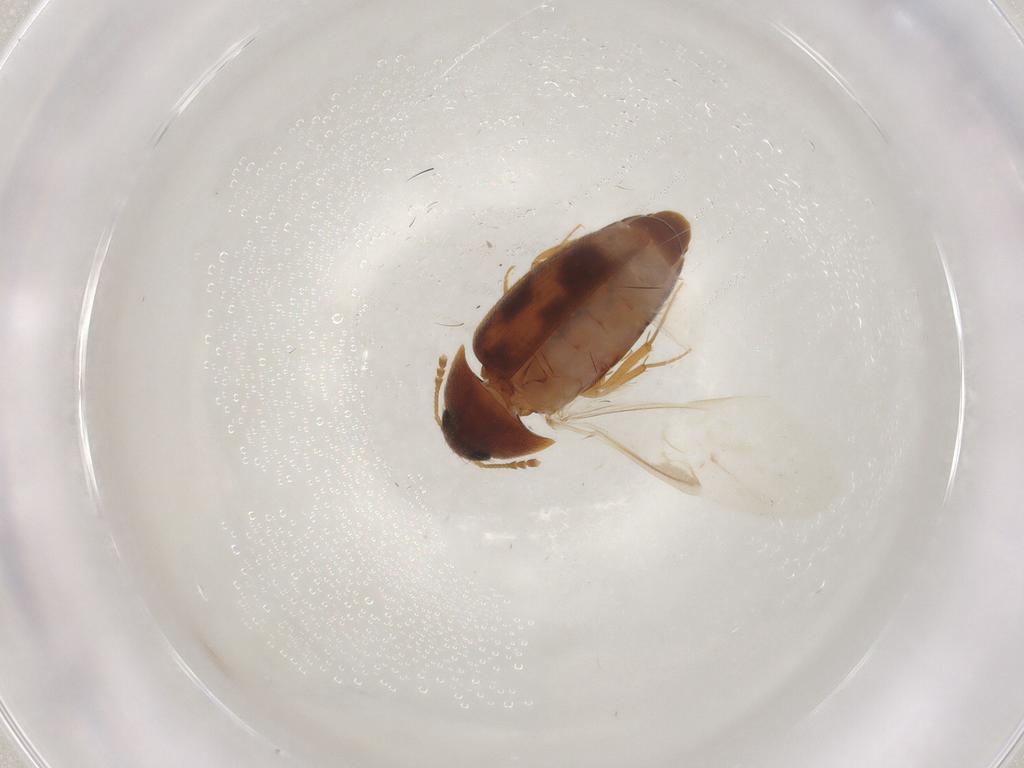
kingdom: Animalia
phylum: Arthropoda
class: Insecta
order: Coleoptera
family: Mycetophagidae
